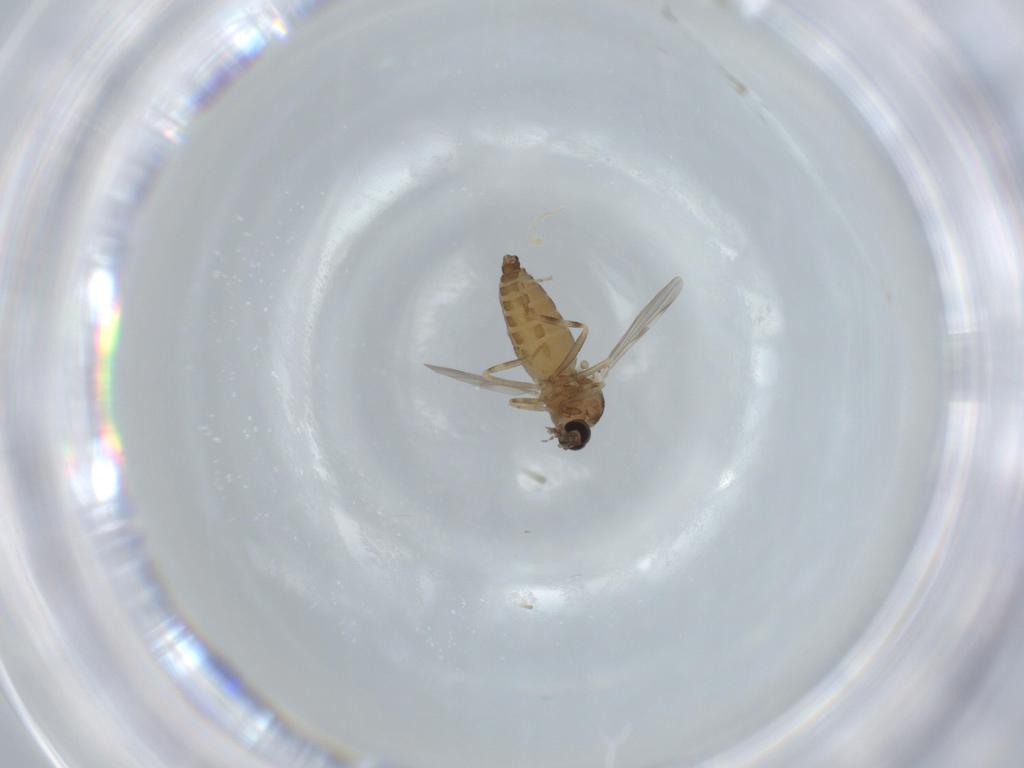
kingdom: Animalia
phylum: Arthropoda
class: Insecta
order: Diptera
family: Ceratopogonidae
